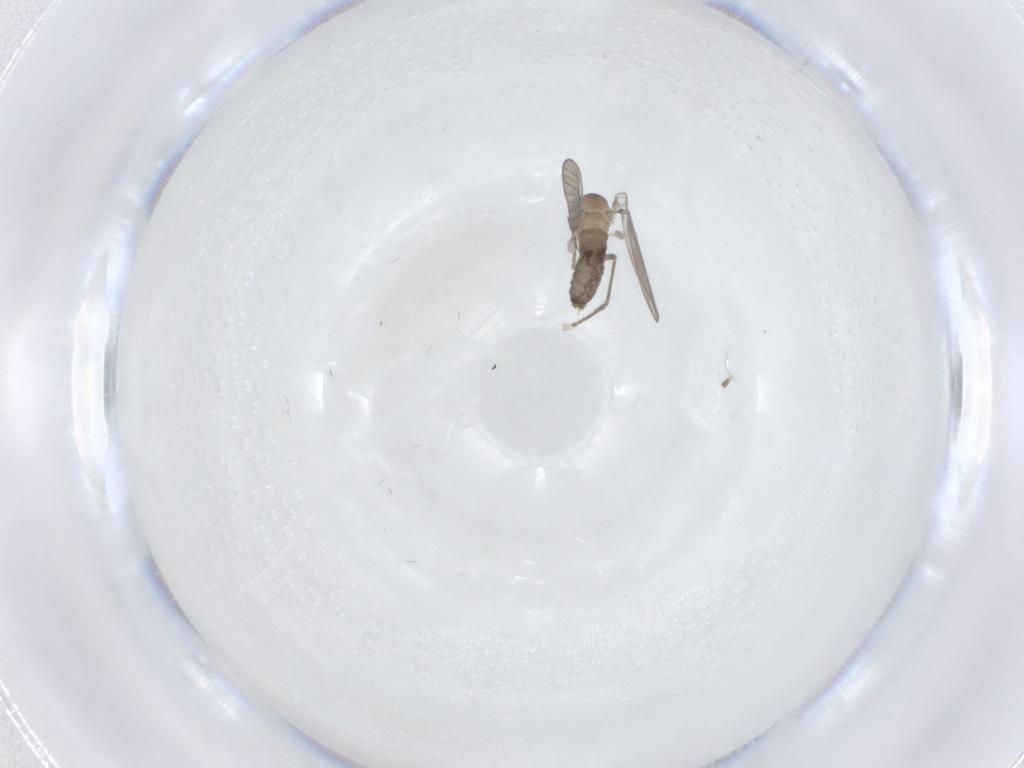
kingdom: Animalia
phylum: Arthropoda
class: Insecta
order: Diptera
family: Psychodidae
